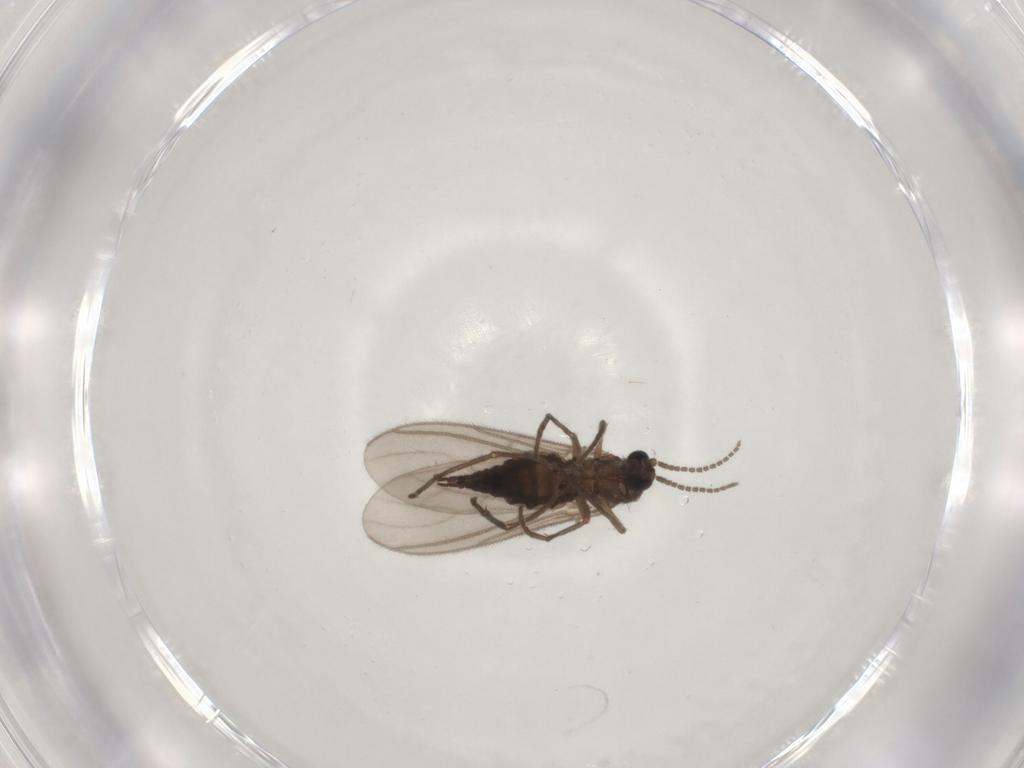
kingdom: Animalia
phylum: Arthropoda
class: Insecta
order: Diptera
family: Sciaridae
